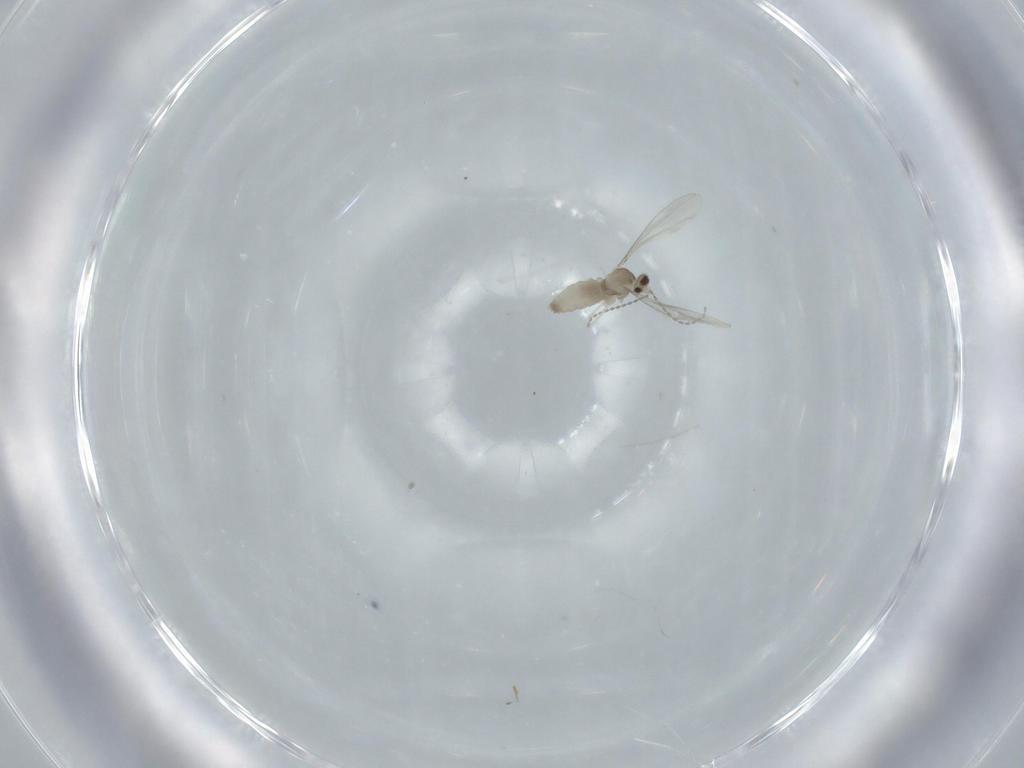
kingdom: Animalia
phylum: Arthropoda
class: Insecta
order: Diptera
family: Cecidomyiidae
